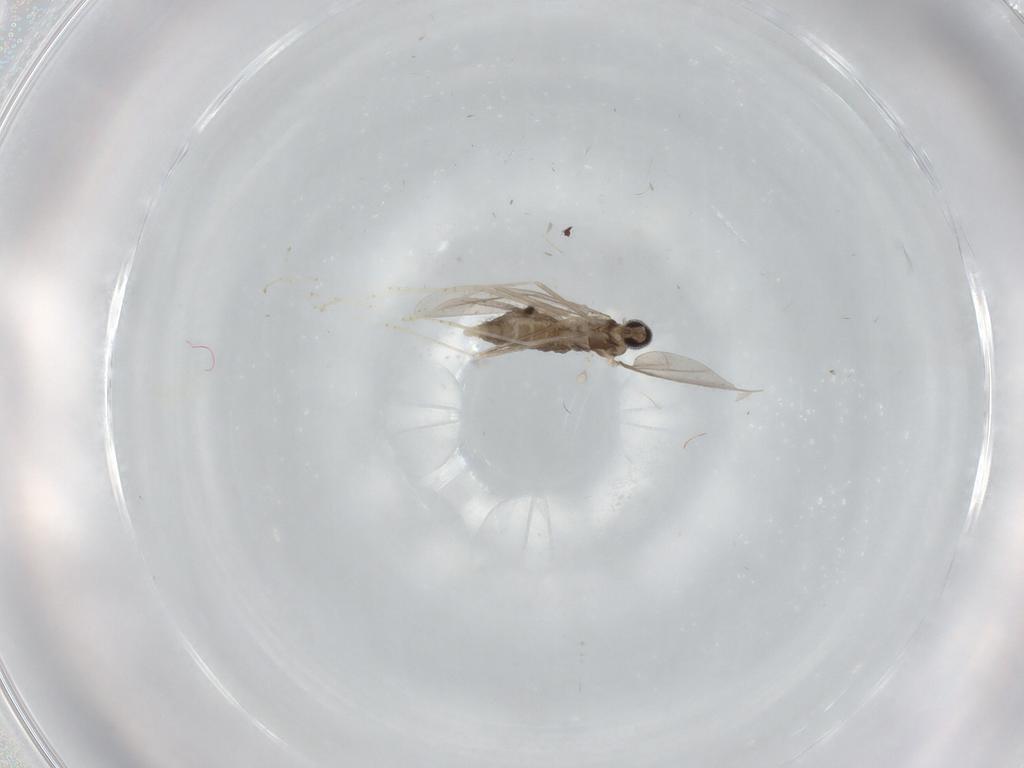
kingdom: Animalia
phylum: Arthropoda
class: Insecta
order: Diptera
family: Cecidomyiidae
